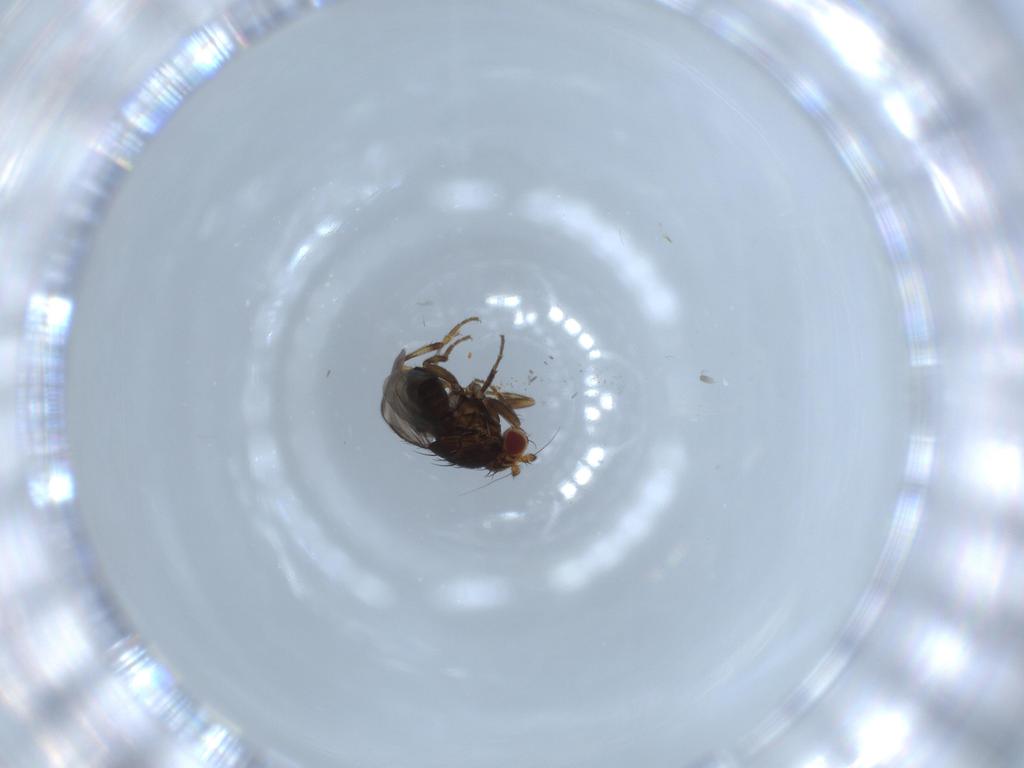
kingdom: Animalia
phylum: Arthropoda
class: Insecta
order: Diptera
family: Sphaeroceridae
